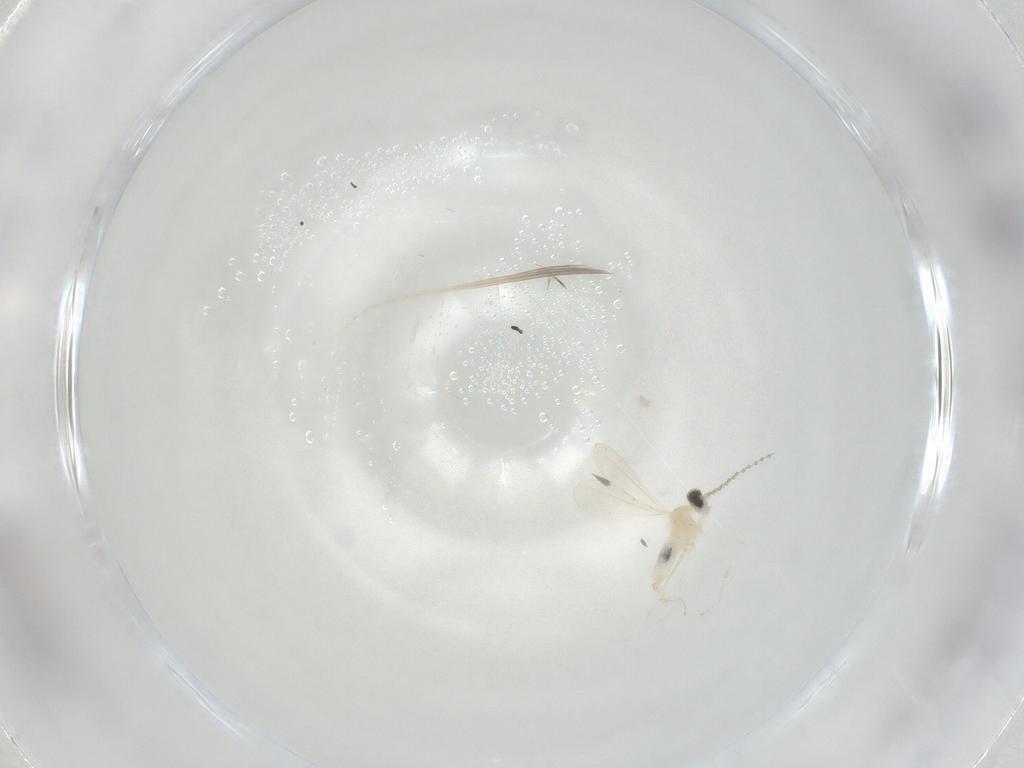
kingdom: Animalia
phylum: Arthropoda
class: Insecta
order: Diptera
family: Cecidomyiidae
